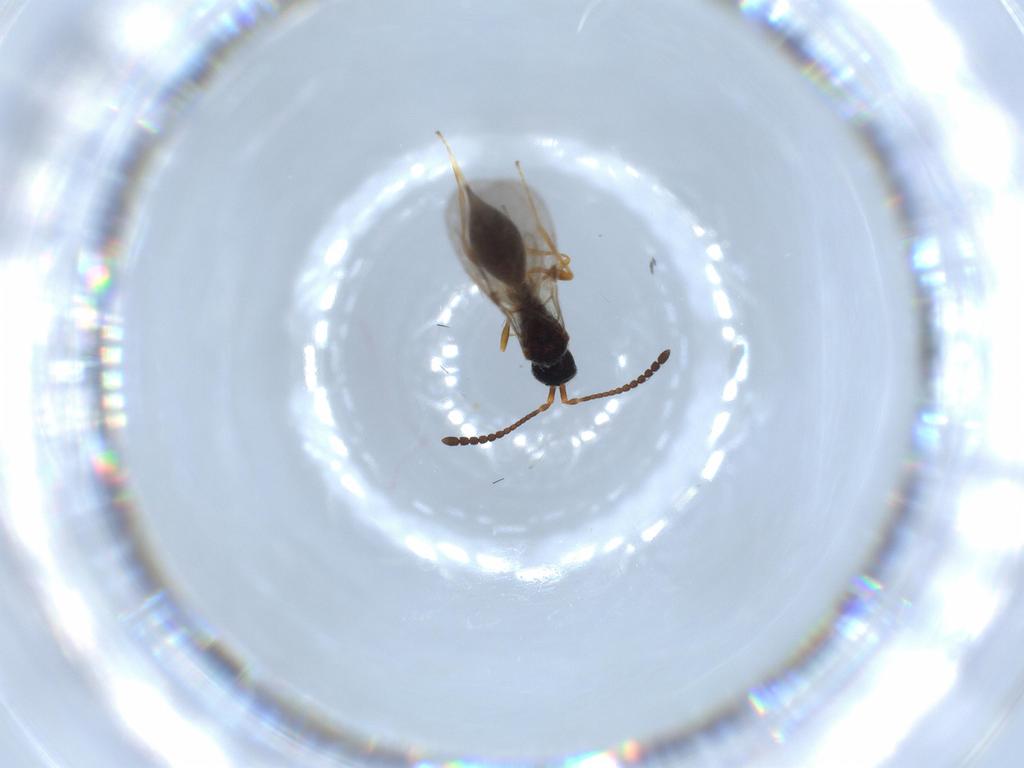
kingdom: Animalia
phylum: Arthropoda
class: Insecta
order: Hymenoptera
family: Diapriidae
